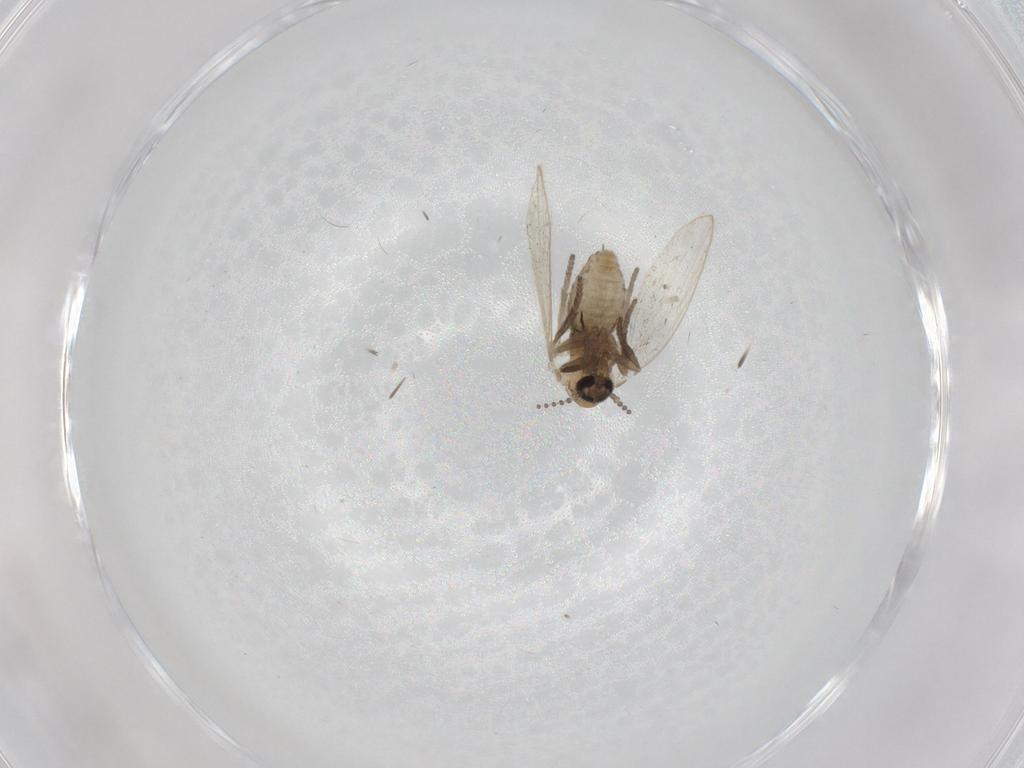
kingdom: Animalia
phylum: Arthropoda
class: Insecta
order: Diptera
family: Psychodidae
